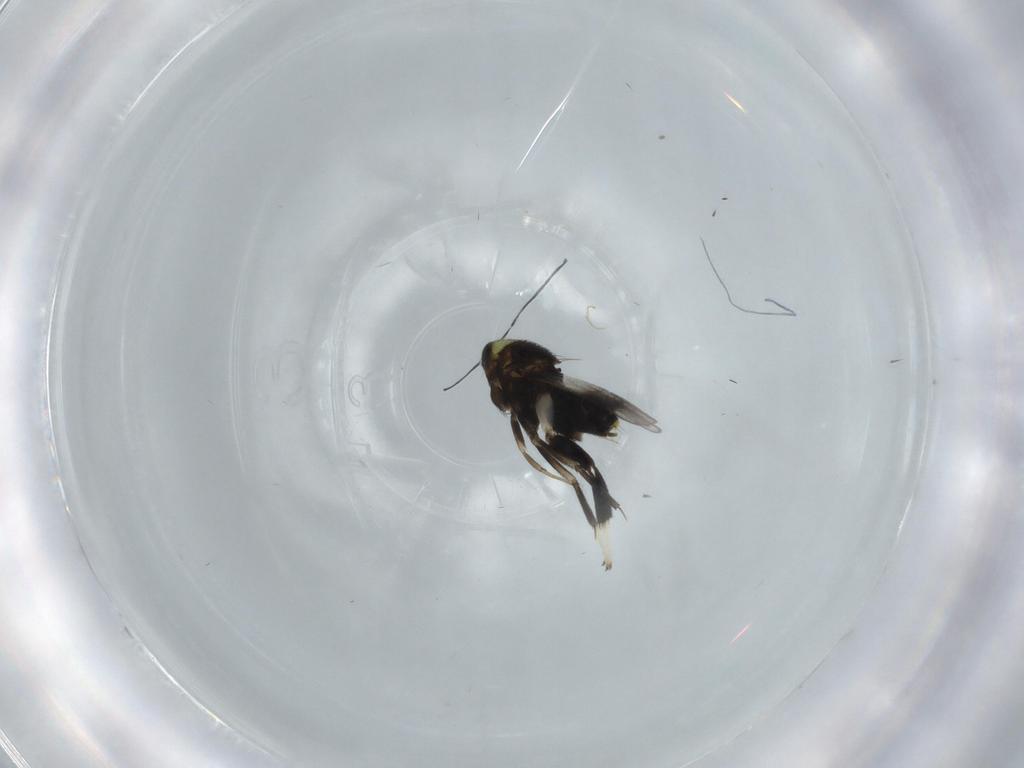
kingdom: Animalia
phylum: Arthropoda
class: Insecta
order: Hymenoptera
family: Aphelinidae
